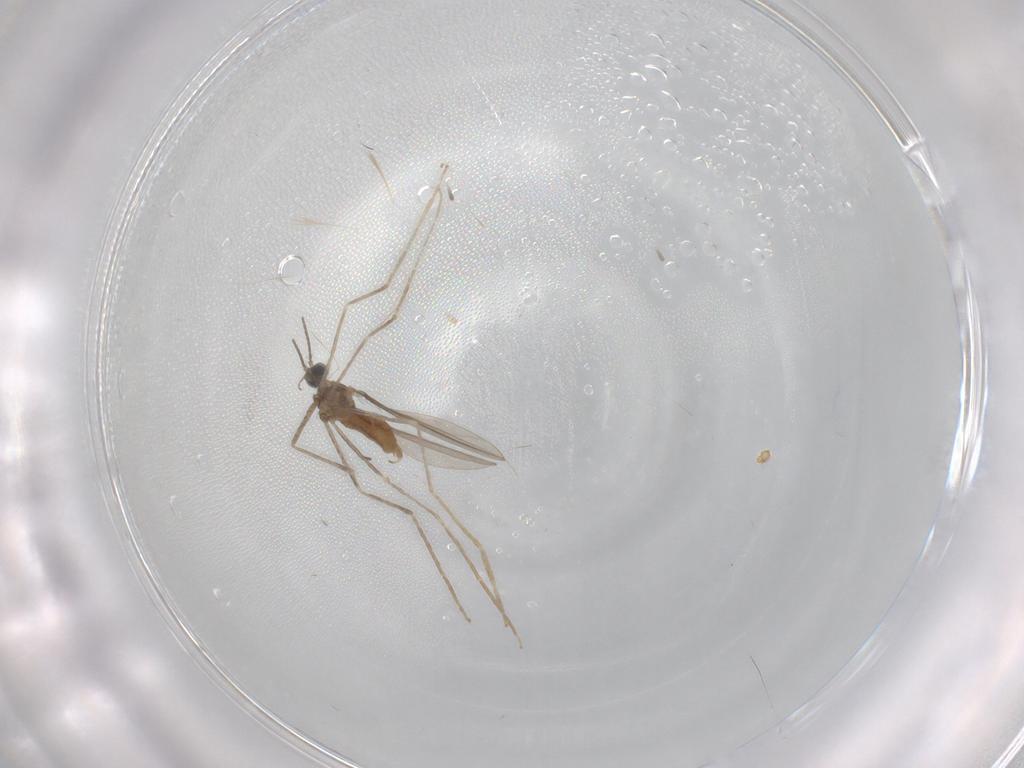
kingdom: Animalia
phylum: Arthropoda
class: Insecta
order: Diptera
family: Cecidomyiidae
